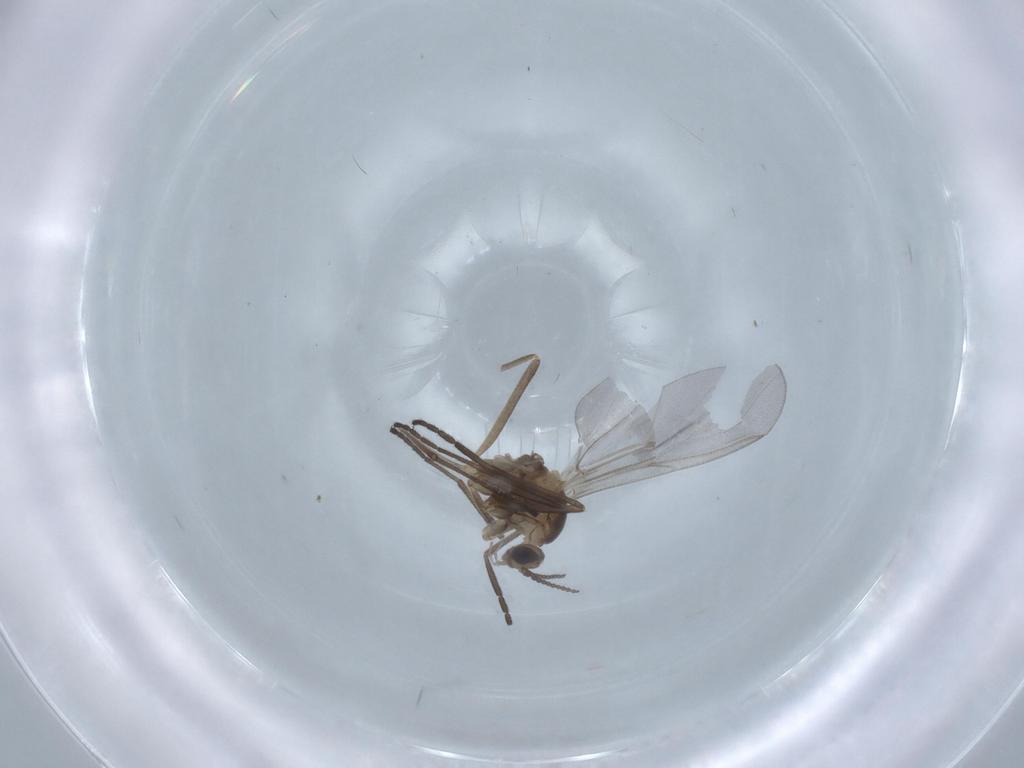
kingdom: Animalia
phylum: Arthropoda
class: Insecta
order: Diptera
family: Cecidomyiidae
